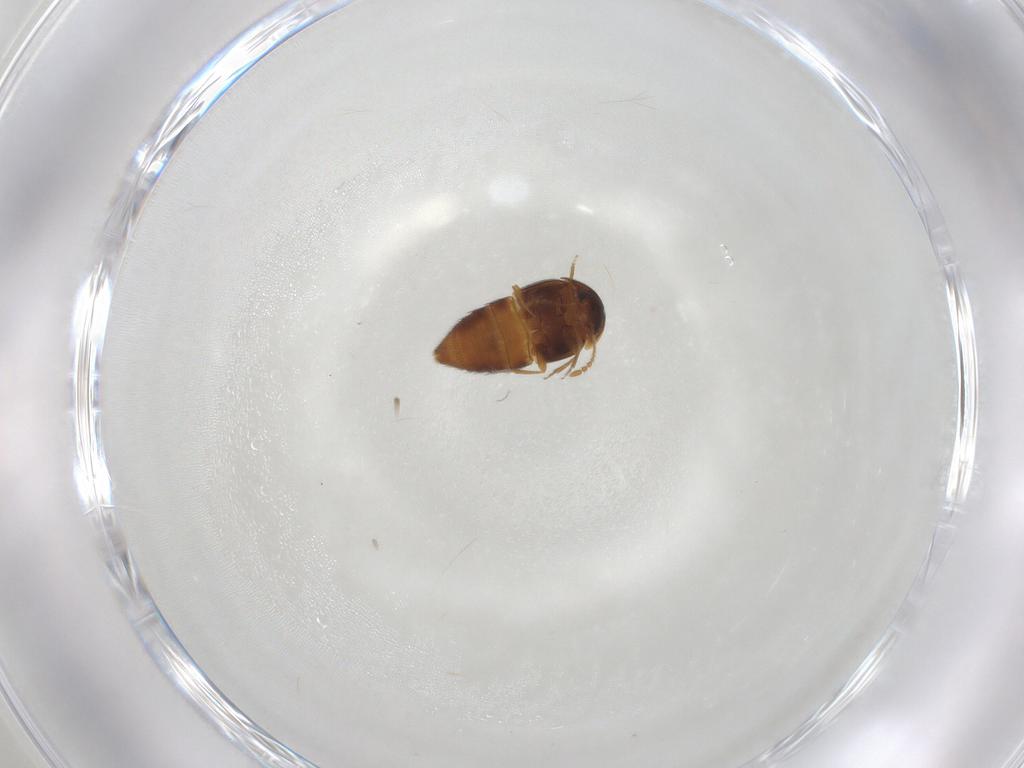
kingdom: Animalia
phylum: Arthropoda
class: Insecta
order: Coleoptera
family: Staphylinidae
